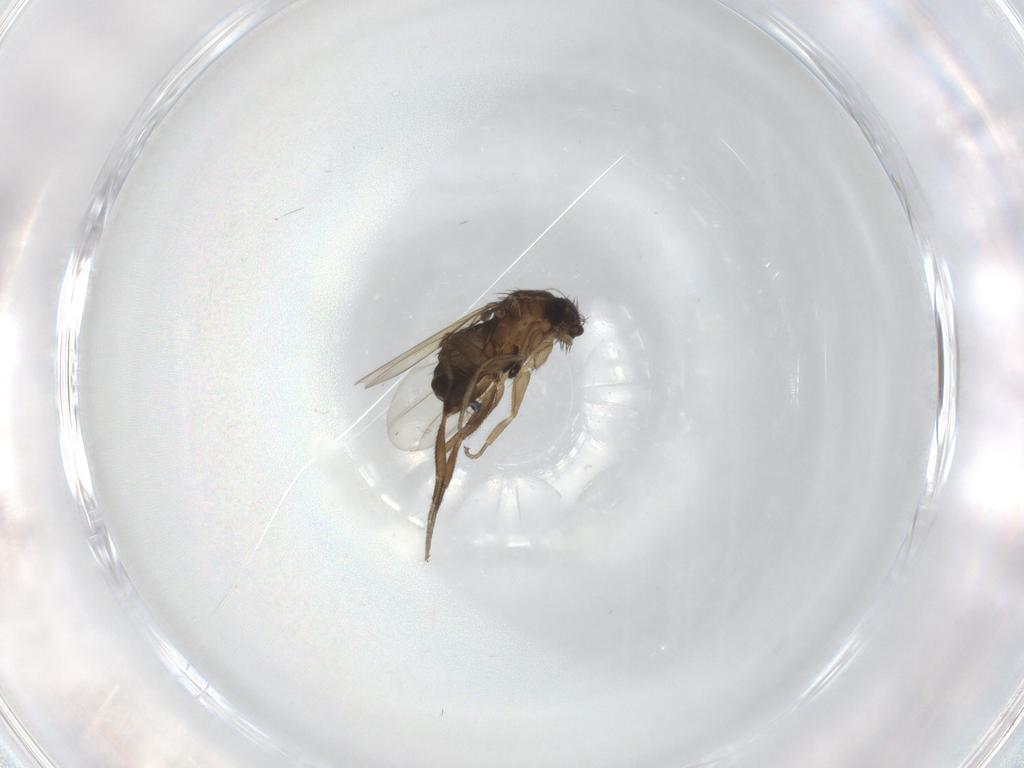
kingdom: Animalia
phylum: Arthropoda
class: Insecta
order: Diptera
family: Phoridae
